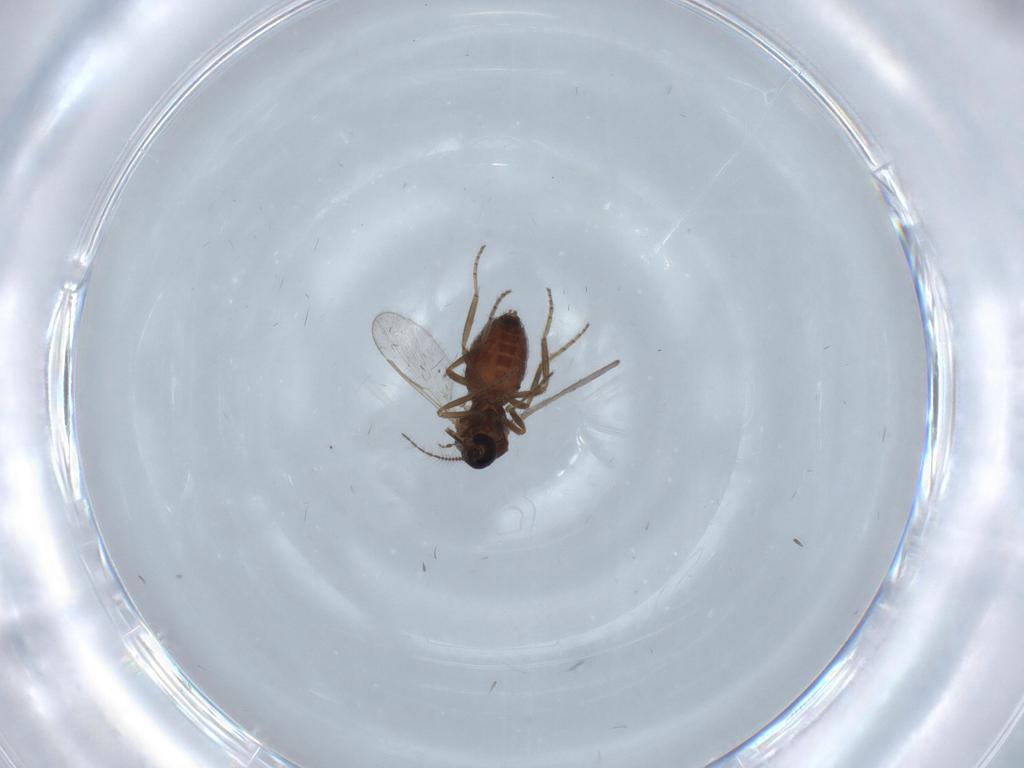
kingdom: Animalia
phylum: Arthropoda
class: Insecta
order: Diptera
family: Ceratopogonidae
